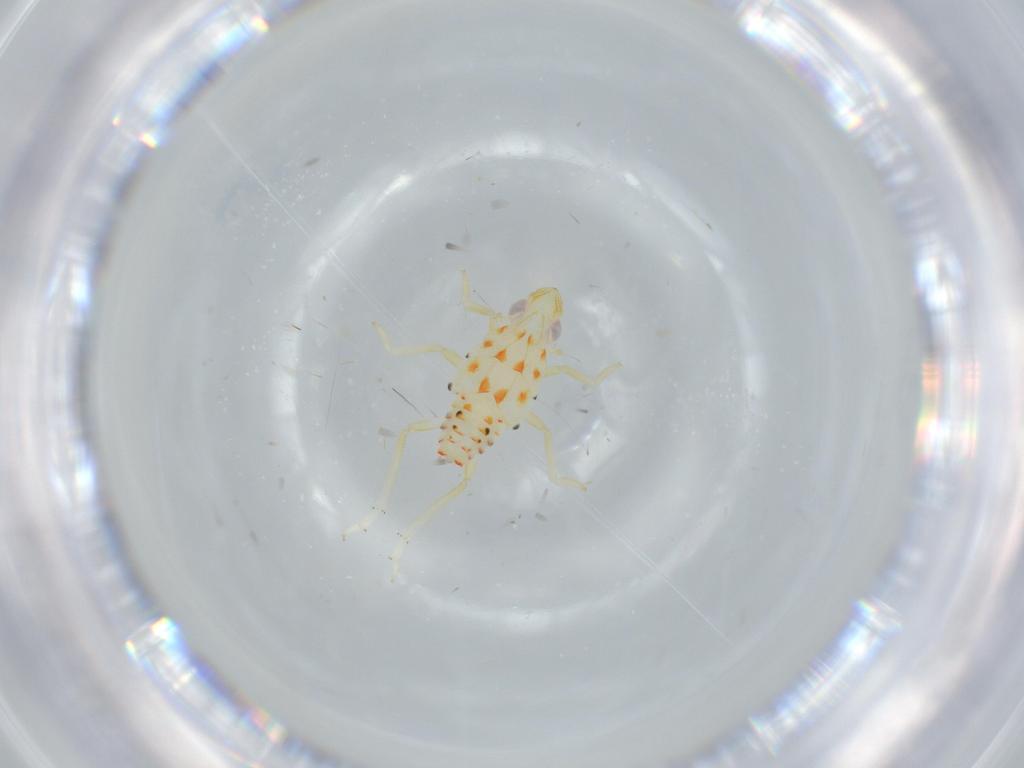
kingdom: Animalia
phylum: Arthropoda
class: Insecta
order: Hemiptera
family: Tropiduchidae
